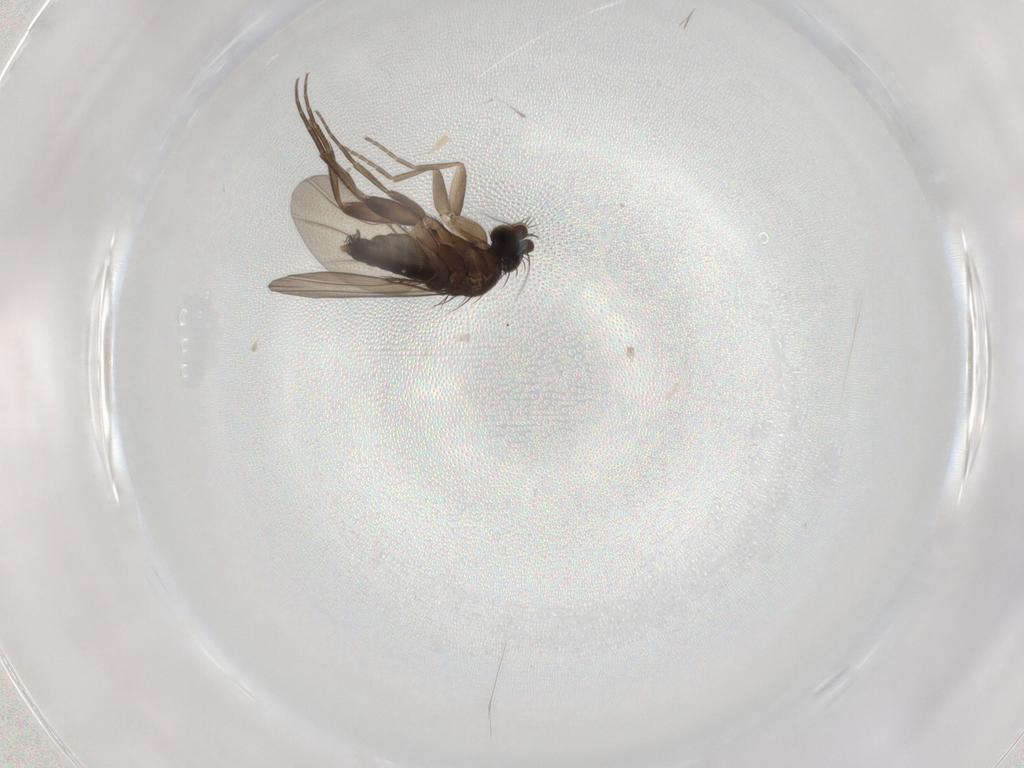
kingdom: Animalia
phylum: Arthropoda
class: Insecta
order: Diptera
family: Phoridae
